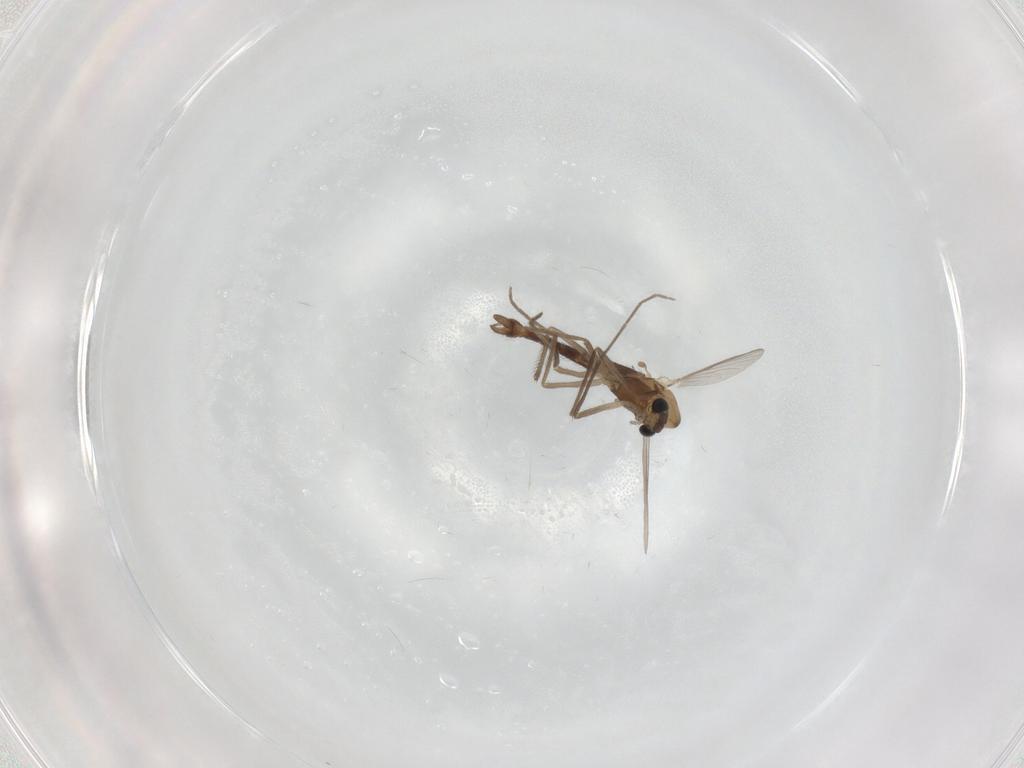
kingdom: Animalia
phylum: Arthropoda
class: Insecta
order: Diptera
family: Chironomidae
